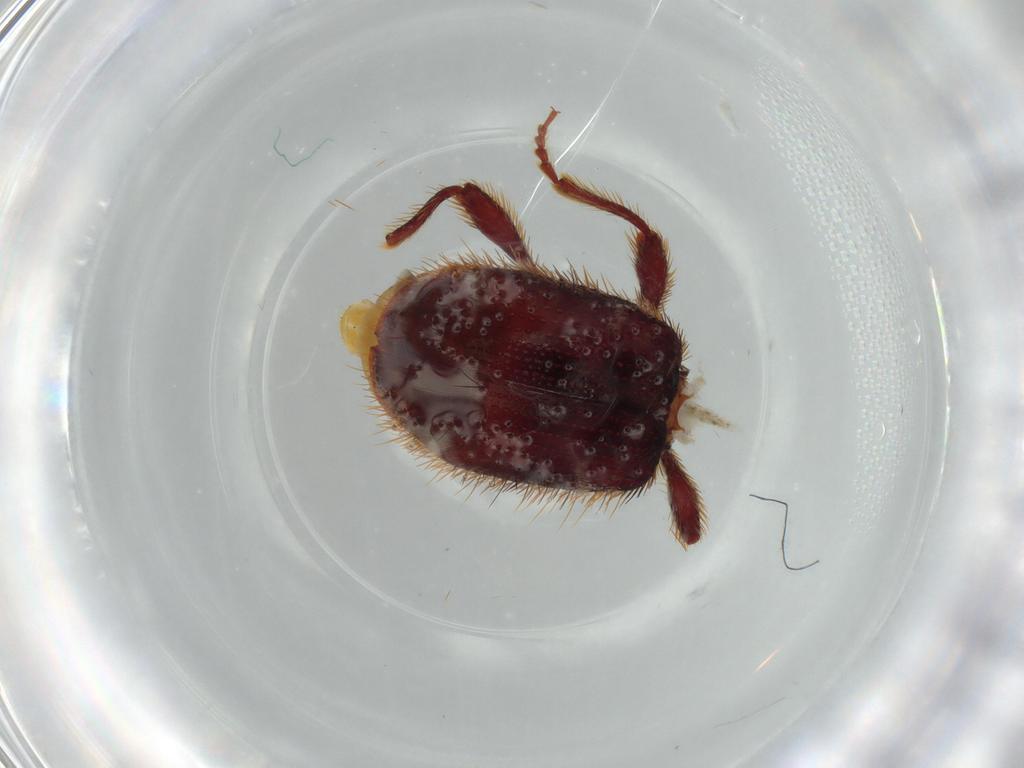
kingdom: Animalia
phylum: Arthropoda
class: Insecta
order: Coleoptera
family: Ptinidae
